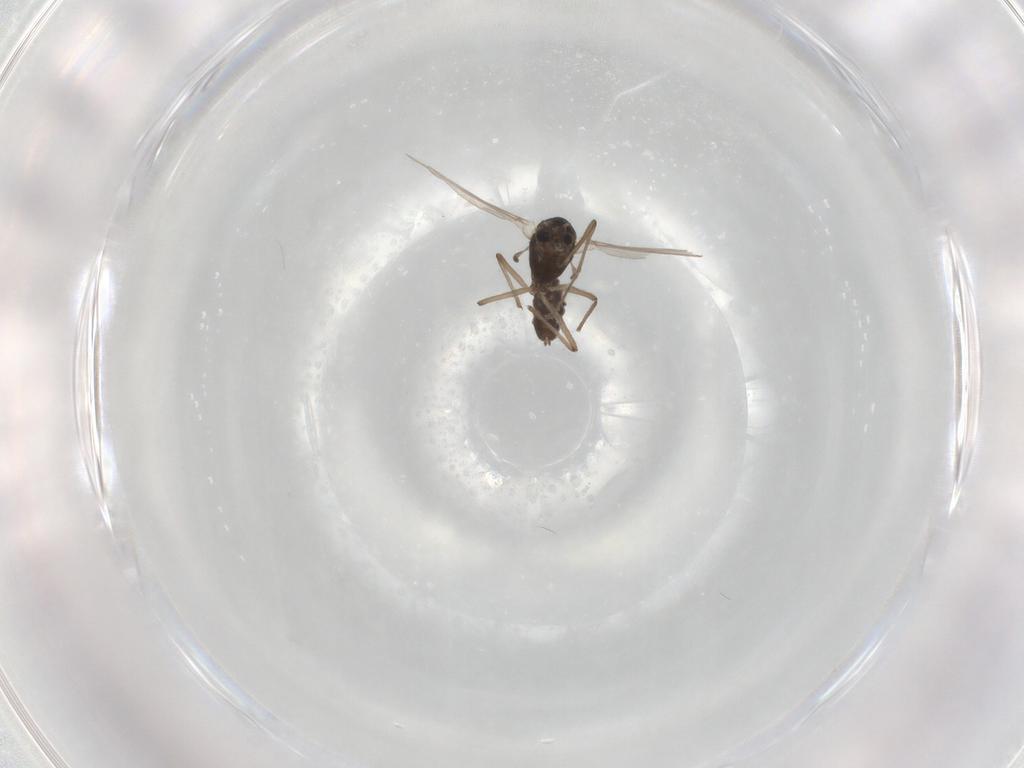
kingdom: Animalia
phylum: Arthropoda
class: Insecta
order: Diptera
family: Chironomidae
